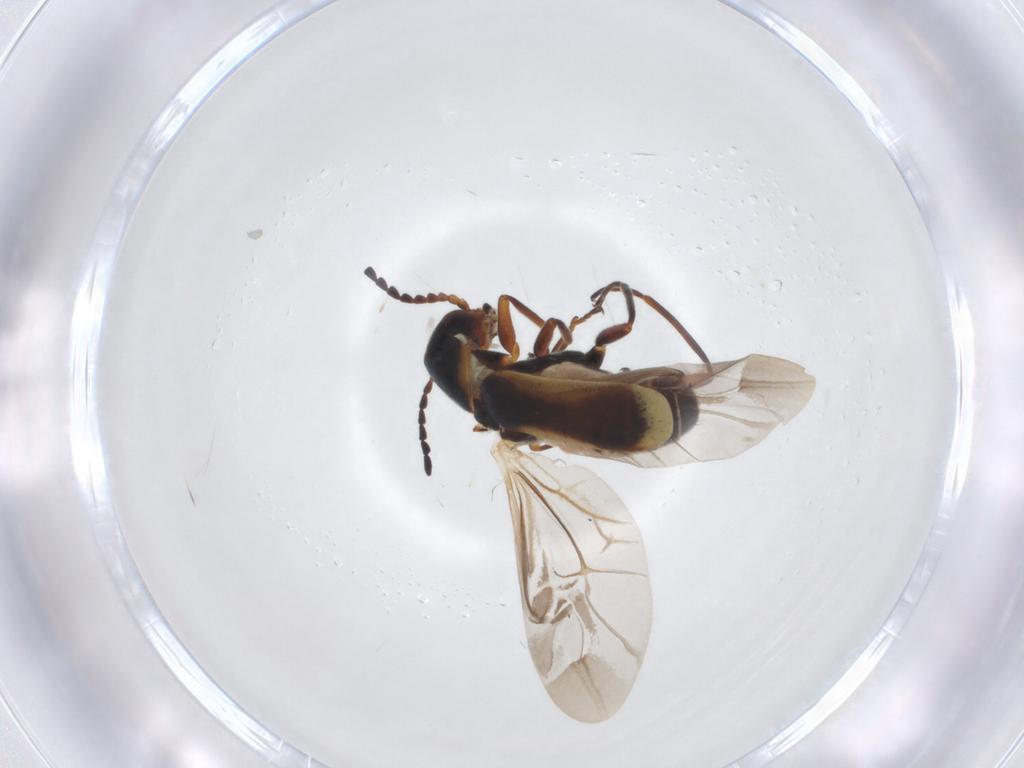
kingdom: Animalia
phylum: Arthropoda
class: Insecta
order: Coleoptera
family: Melyridae
